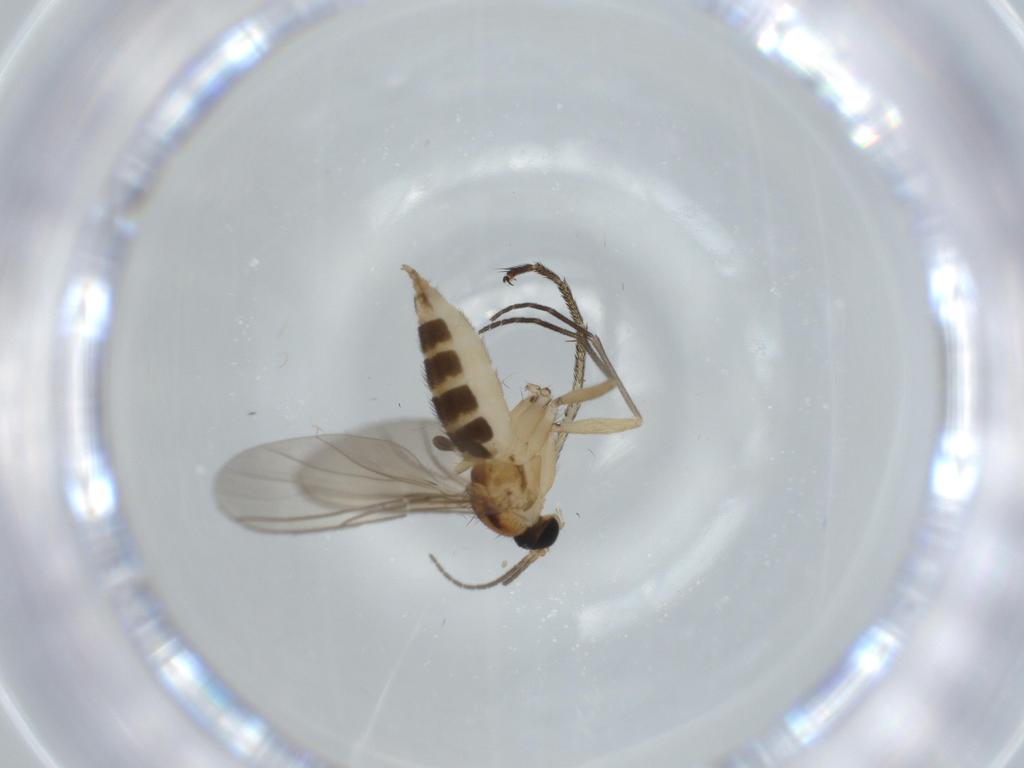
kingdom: Animalia
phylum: Arthropoda
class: Insecta
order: Diptera
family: Sciaridae
